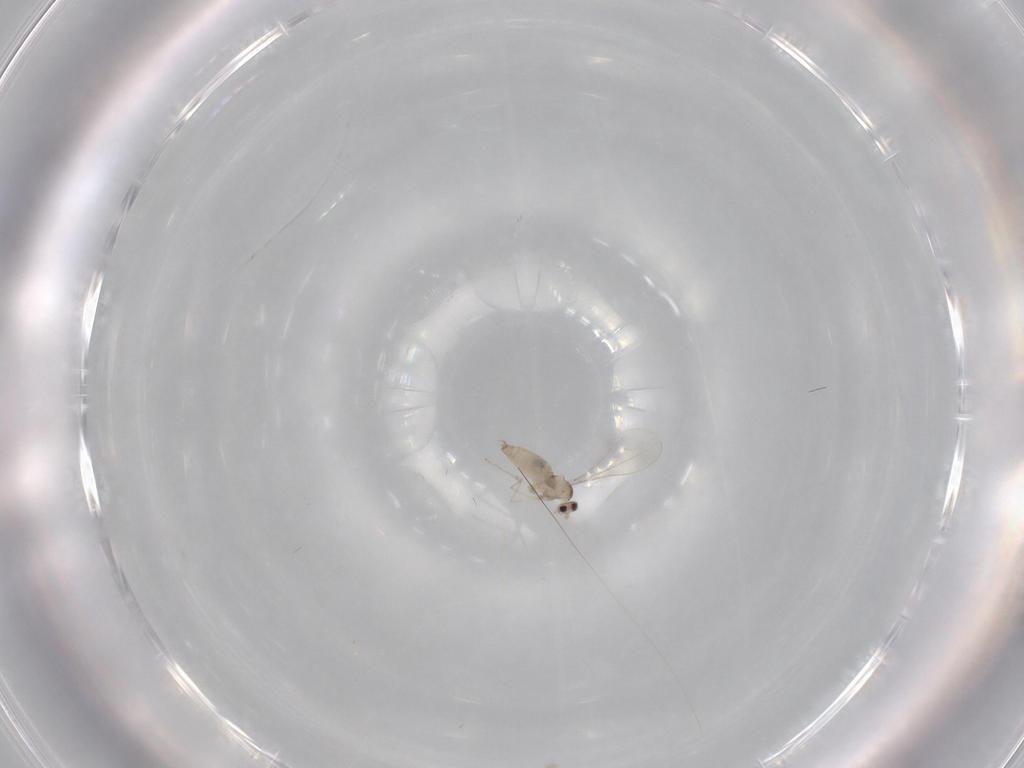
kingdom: Animalia
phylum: Arthropoda
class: Insecta
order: Diptera
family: Cecidomyiidae
